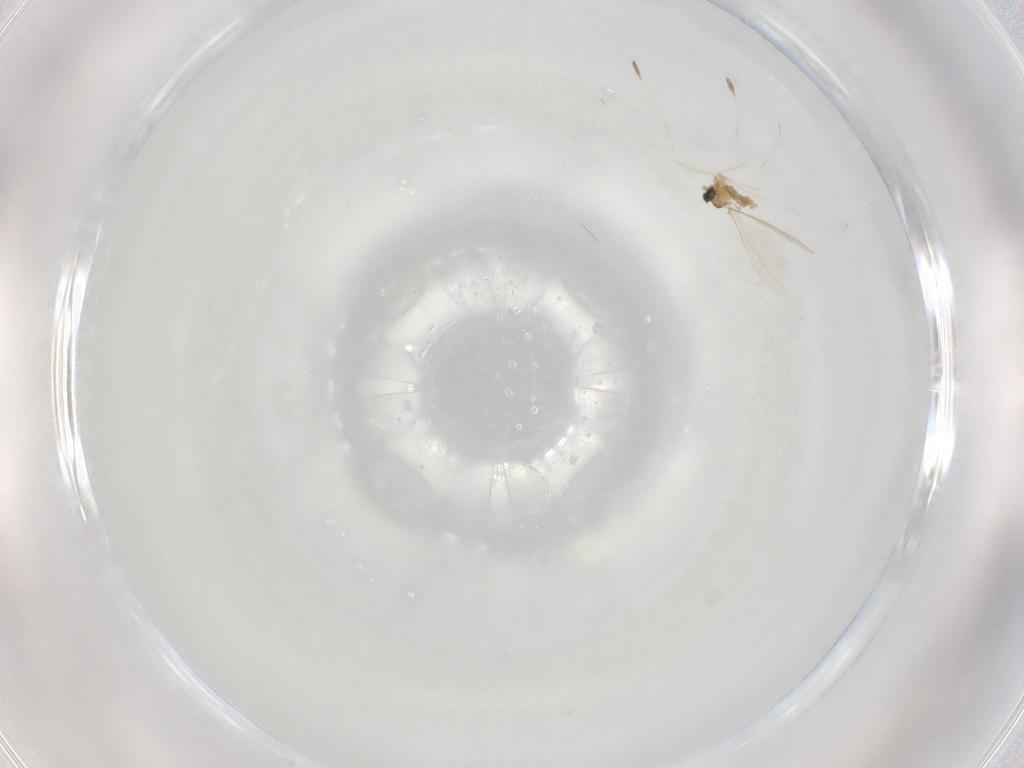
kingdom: Animalia
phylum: Arthropoda
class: Insecta
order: Diptera
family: Cecidomyiidae
